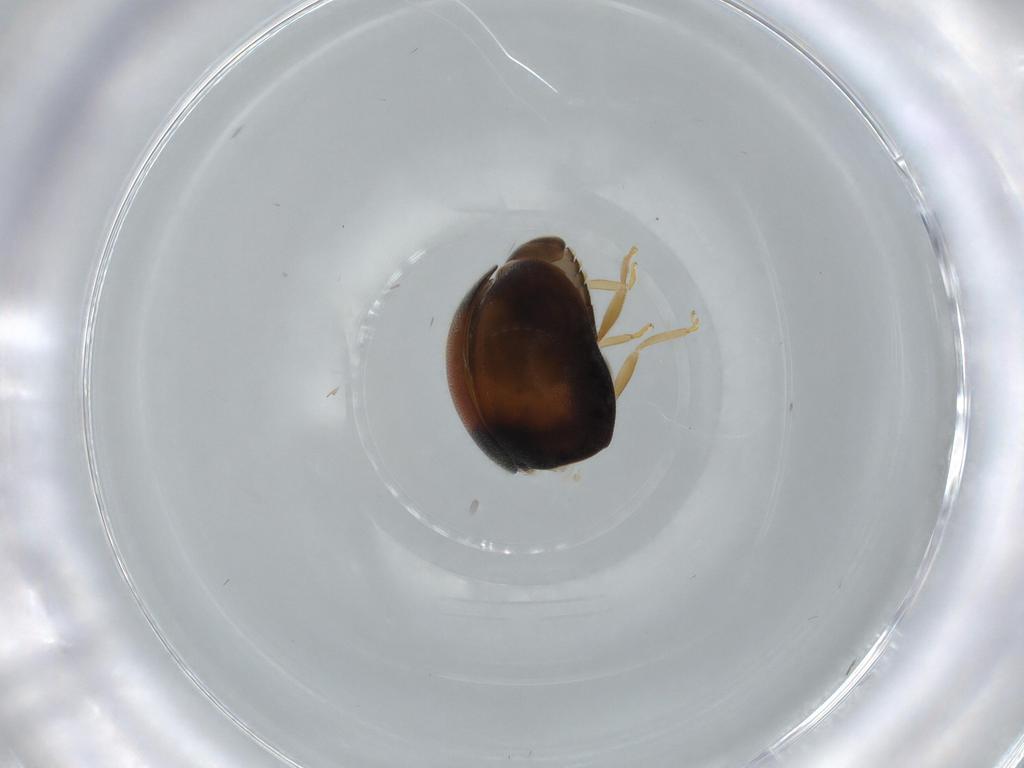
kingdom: Animalia
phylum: Arthropoda
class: Insecta
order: Coleoptera
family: Coccinellidae
